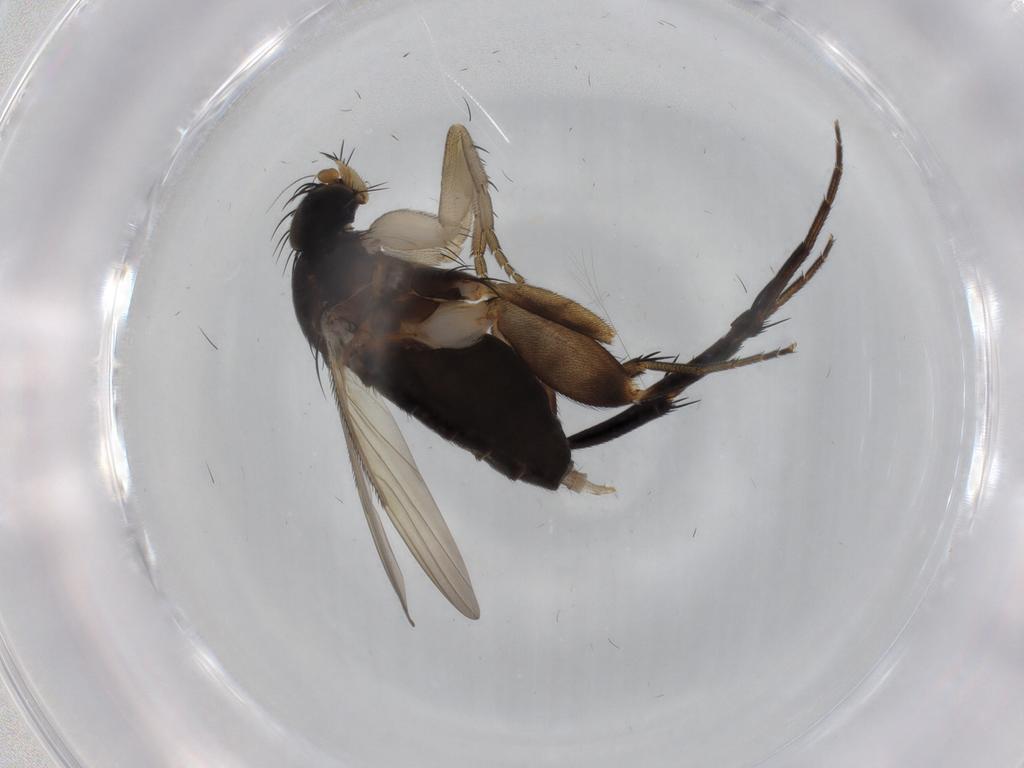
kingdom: Animalia
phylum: Arthropoda
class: Insecta
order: Diptera
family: Phoridae
